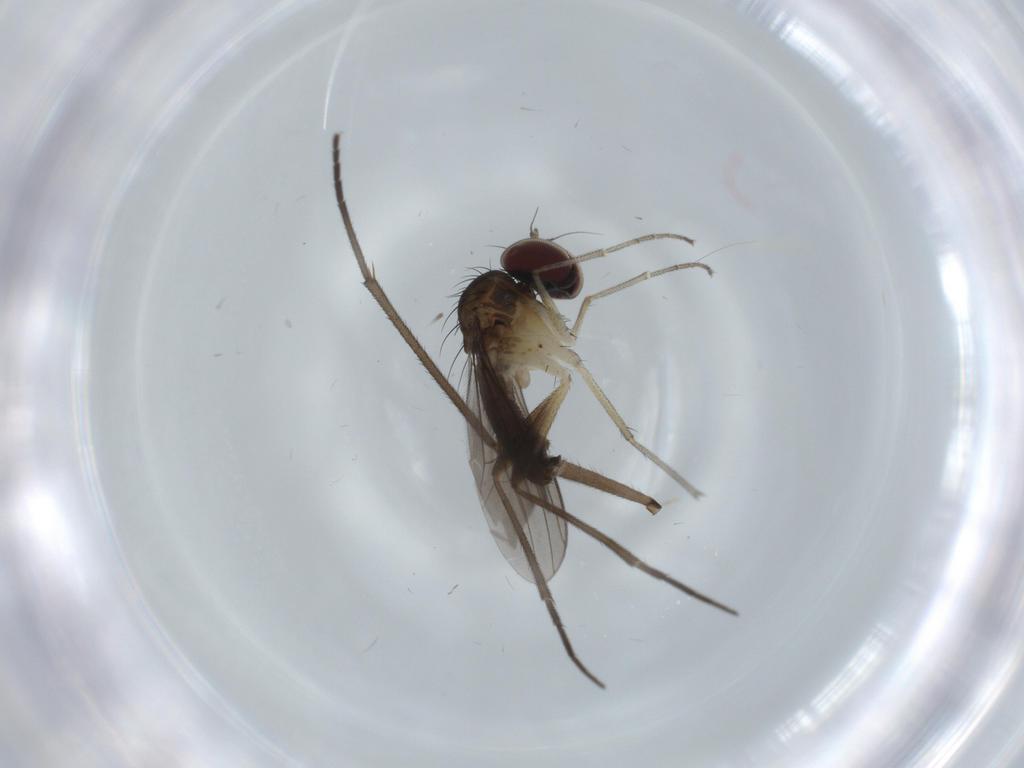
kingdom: Animalia
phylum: Arthropoda
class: Insecta
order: Diptera
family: Dolichopodidae
